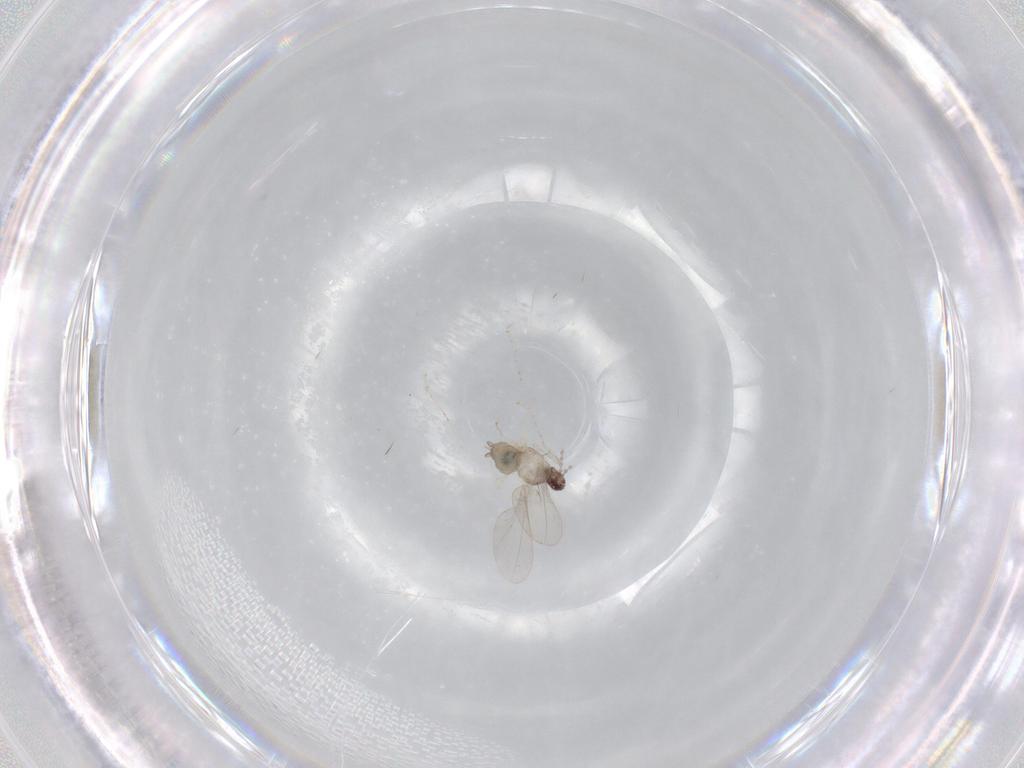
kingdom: Animalia
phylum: Arthropoda
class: Insecta
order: Diptera
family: Cecidomyiidae
